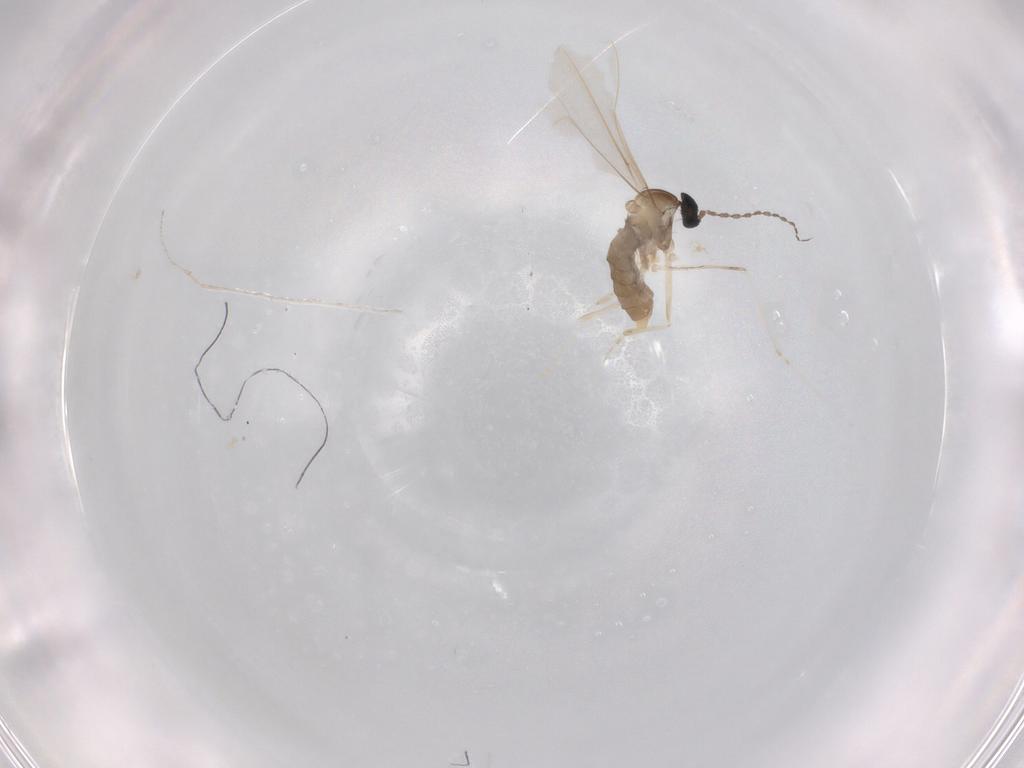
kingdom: Animalia
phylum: Arthropoda
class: Insecta
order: Diptera
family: Cecidomyiidae
